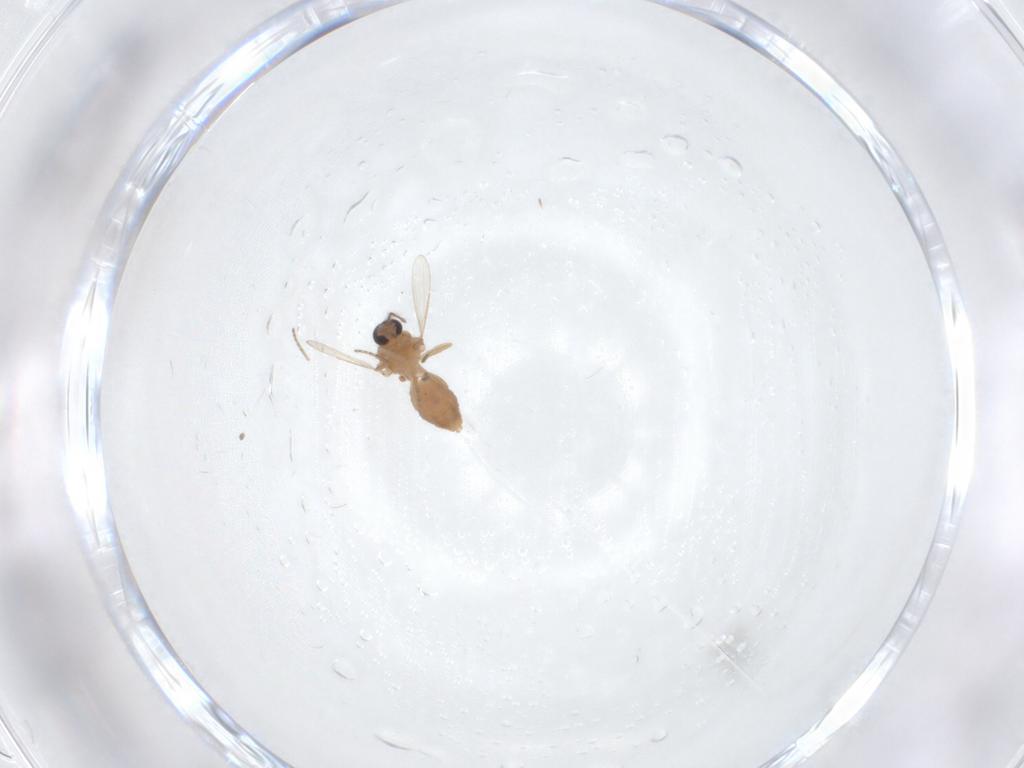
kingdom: Animalia
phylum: Arthropoda
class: Insecta
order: Diptera
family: Ceratopogonidae
